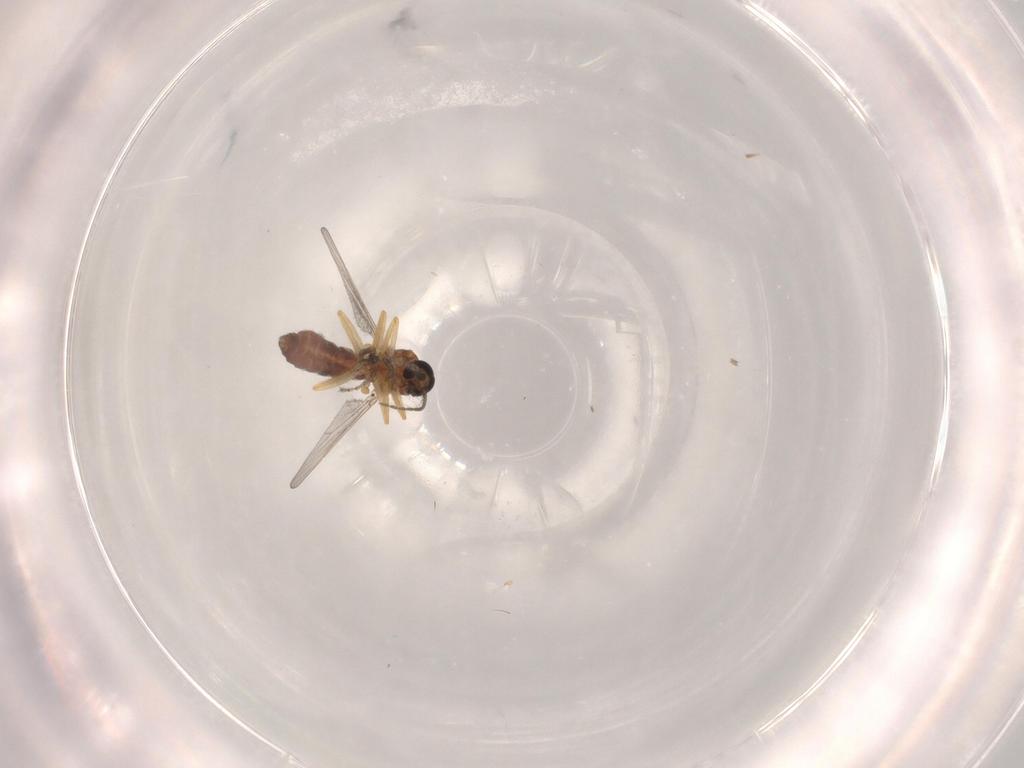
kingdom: Animalia
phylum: Arthropoda
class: Insecta
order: Diptera
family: Ceratopogonidae
